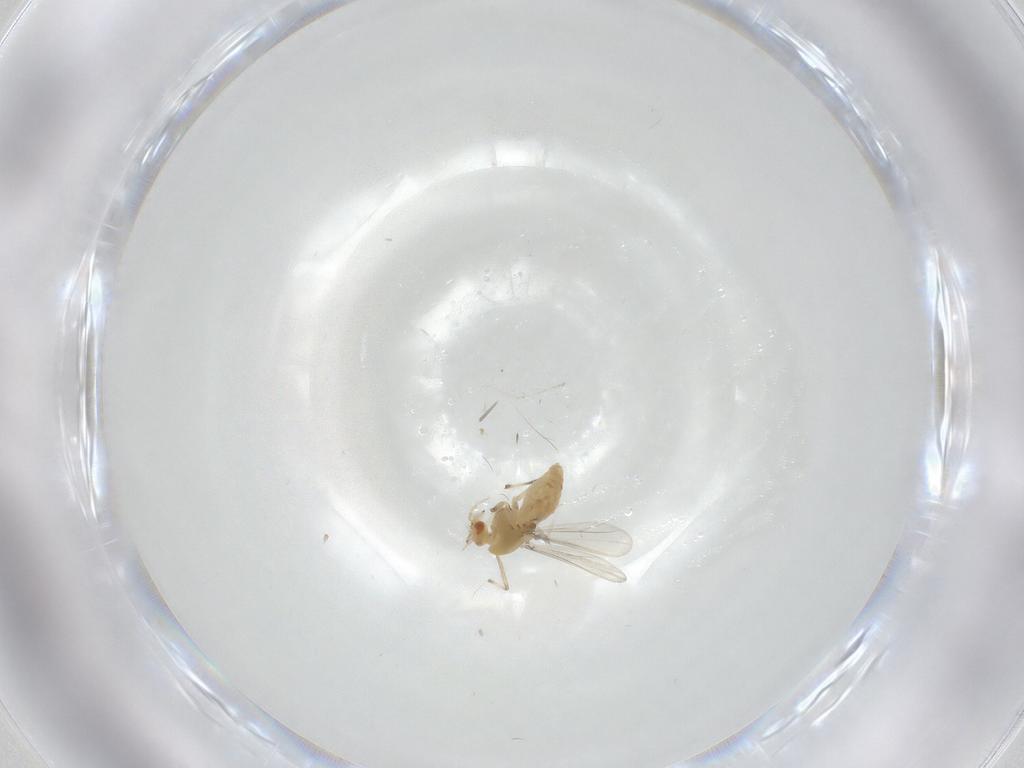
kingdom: Animalia
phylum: Arthropoda
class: Insecta
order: Diptera
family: Chironomidae
